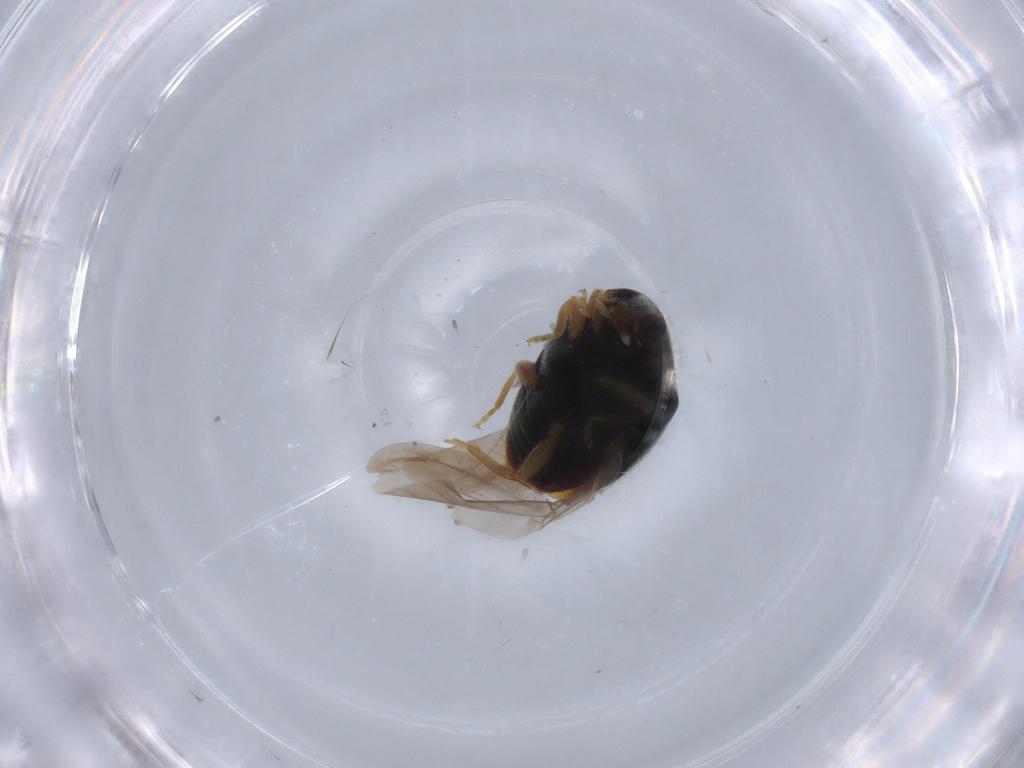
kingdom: Animalia
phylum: Arthropoda
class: Insecta
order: Coleoptera
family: Coccinellidae
